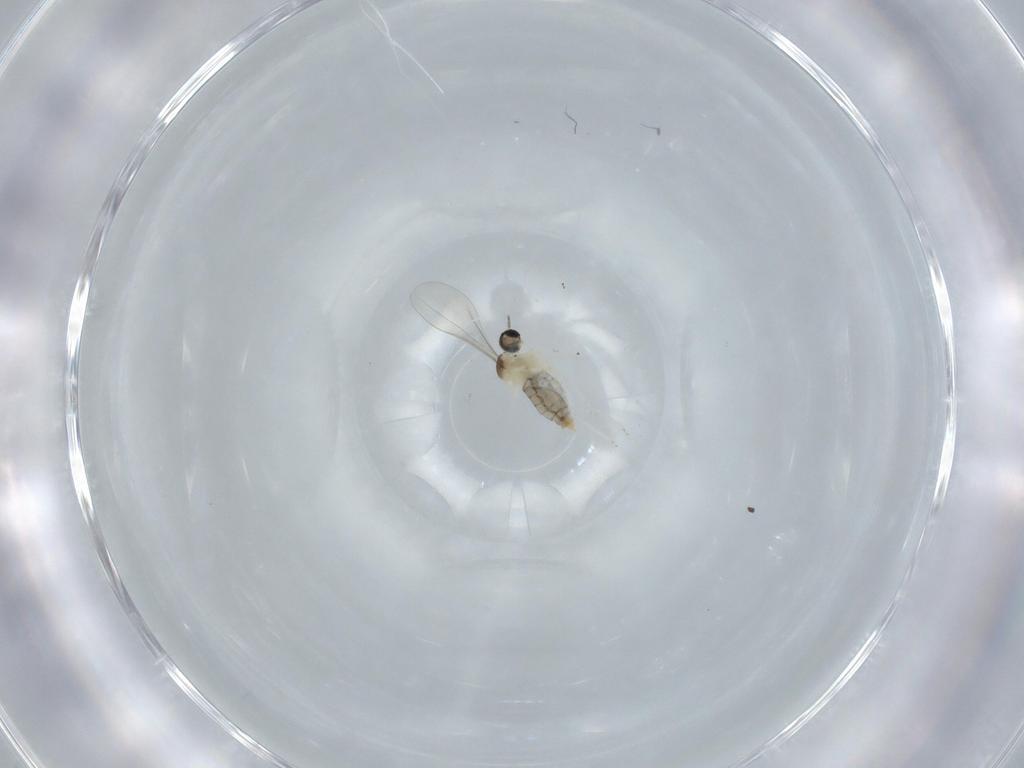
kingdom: Animalia
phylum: Arthropoda
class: Insecta
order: Diptera
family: Cecidomyiidae
